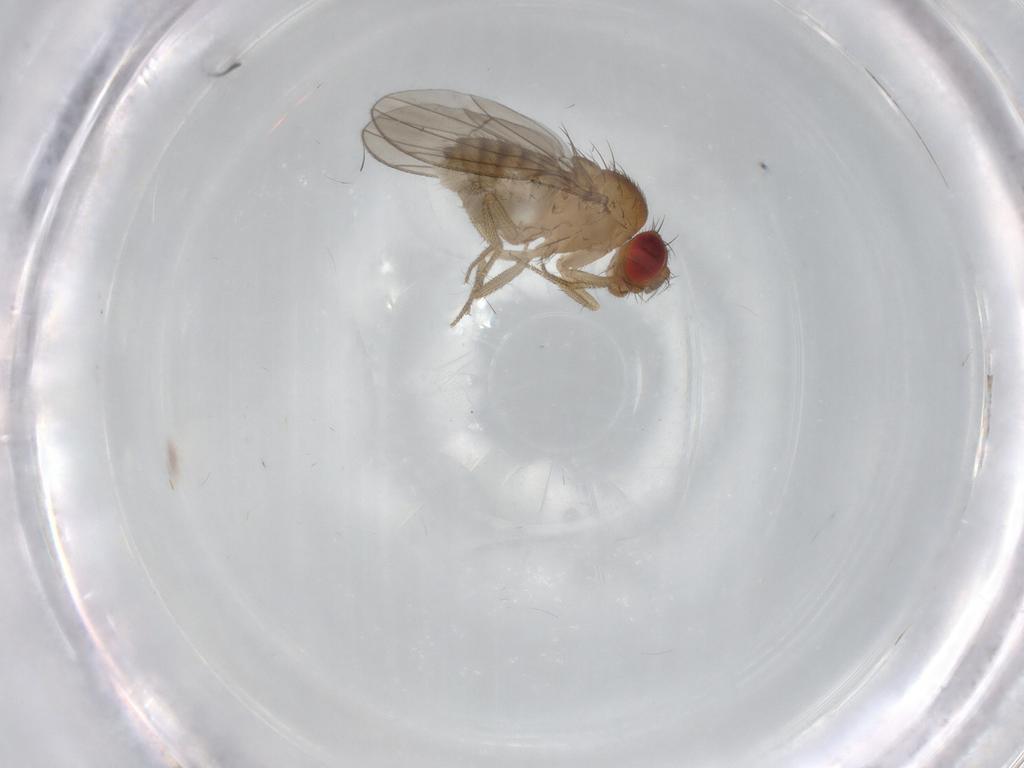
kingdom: Animalia
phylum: Arthropoda
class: Insecta
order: Diptera
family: Drosophilidae
